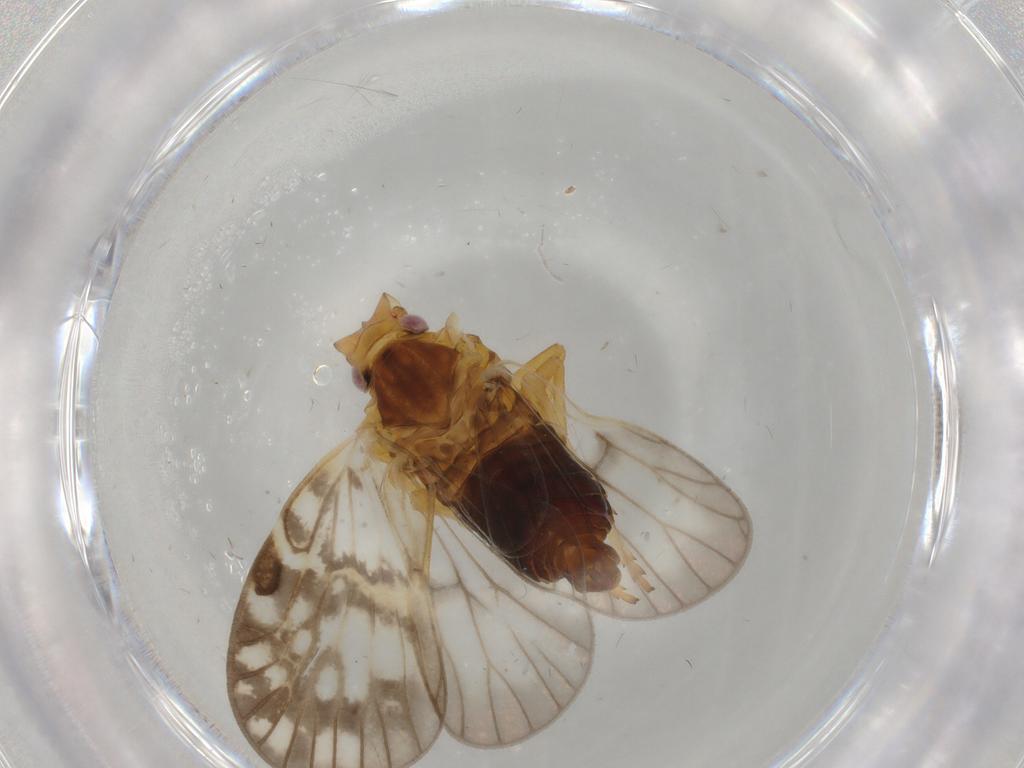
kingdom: Animalia
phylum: Arthropoda
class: Insecta
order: Hemiptera
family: Cixiidae
